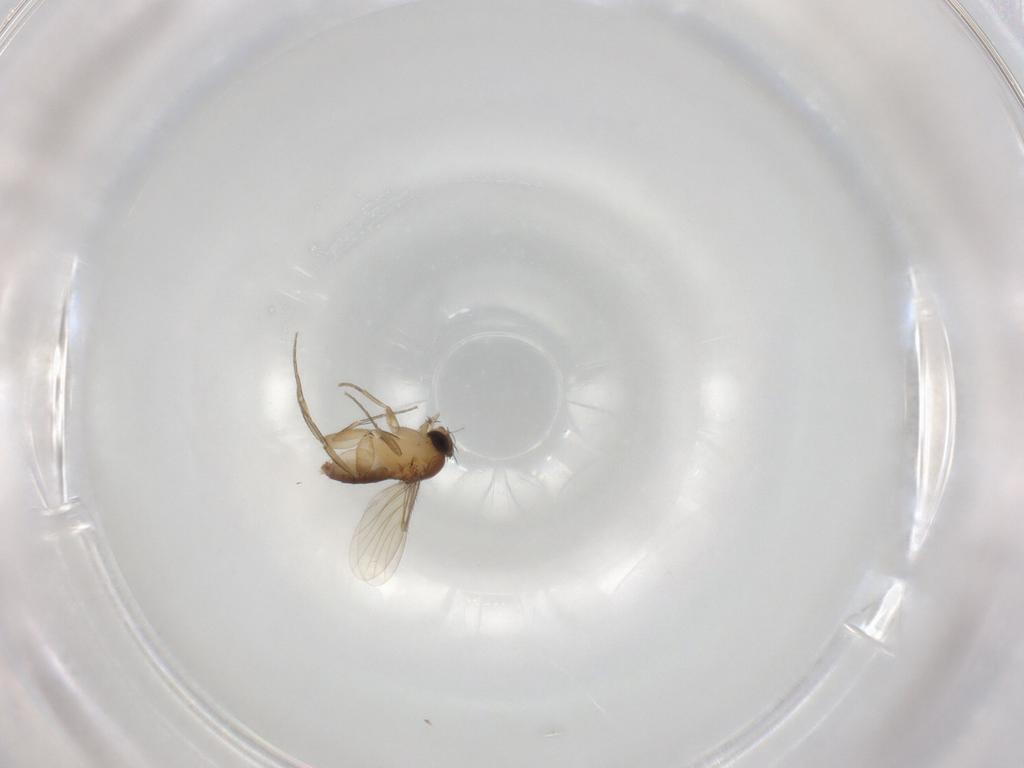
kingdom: Animalia
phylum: Arthropoda
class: Insecta
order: Diptera
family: Phoridae
